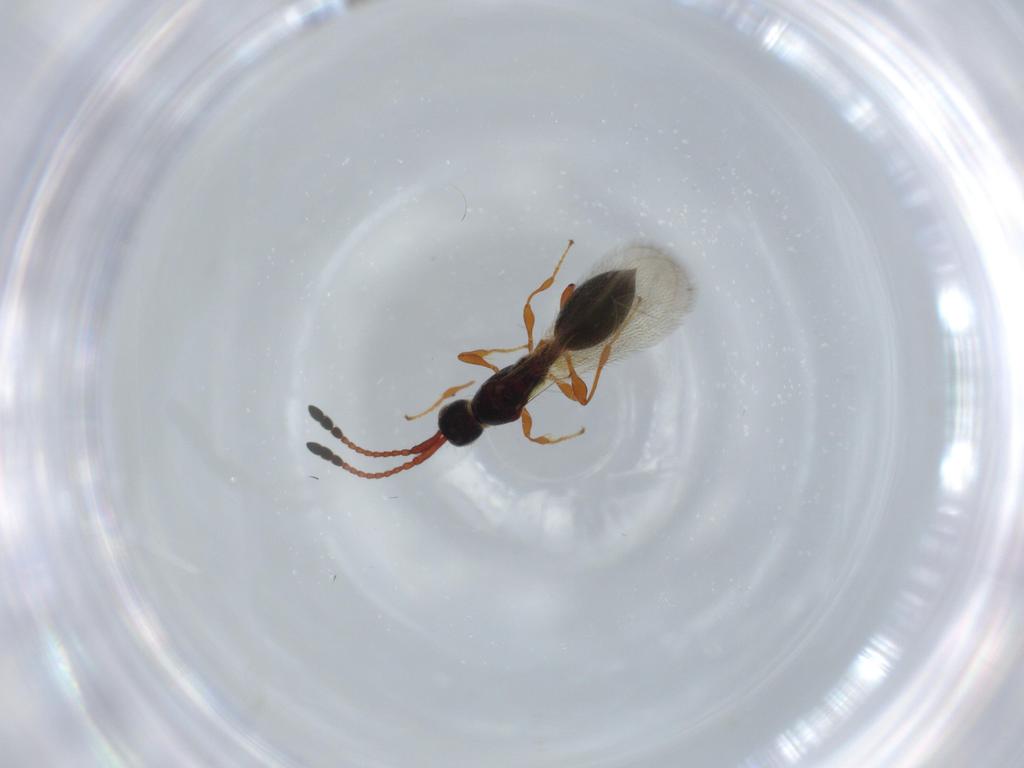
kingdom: Animalia
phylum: Arthropoda
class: Insecta
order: Hymenoptera
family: Diapriidae
